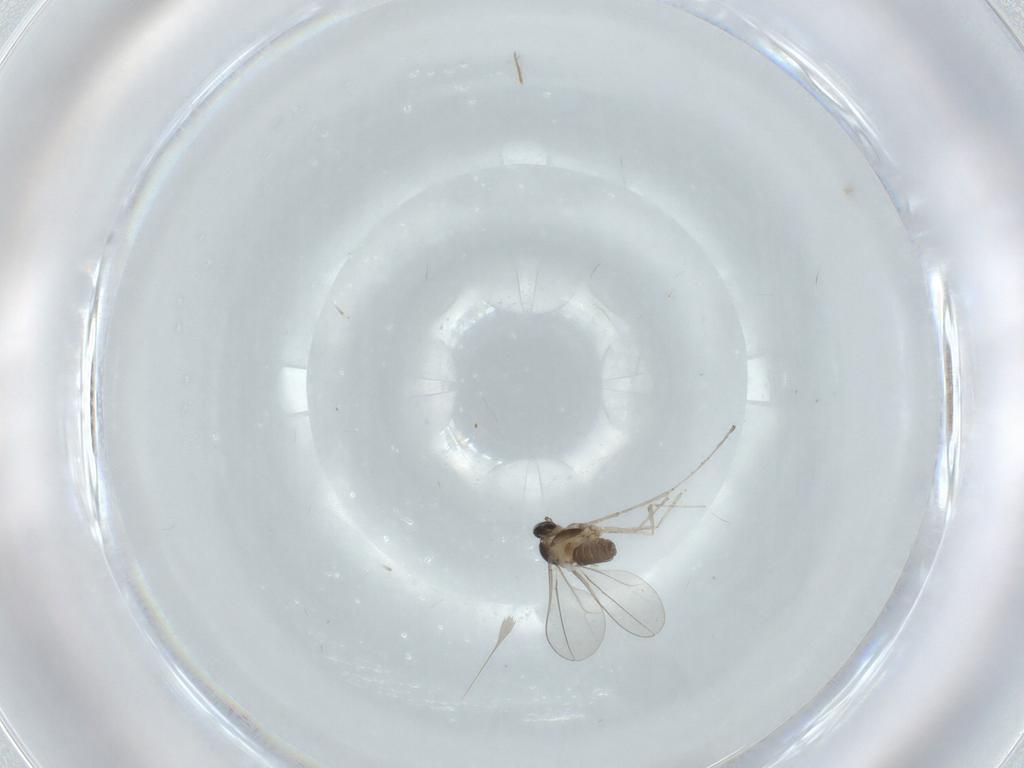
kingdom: Animalia
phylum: Arthropoda
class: Insecta
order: Diptera
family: Cecidomyiidae
